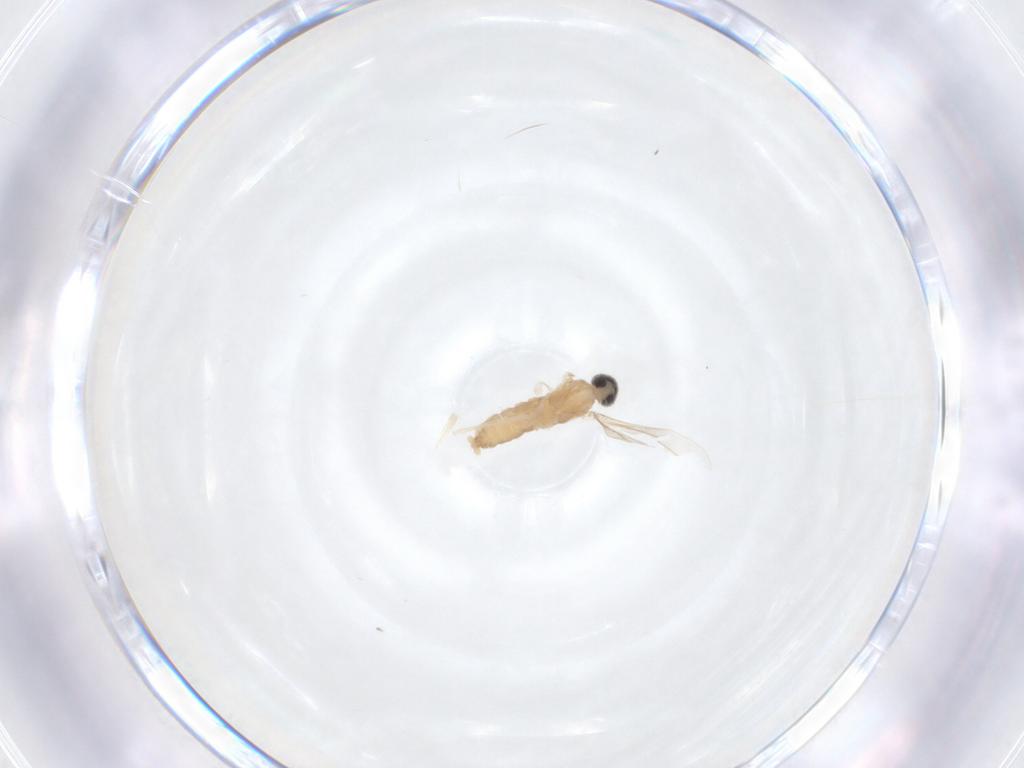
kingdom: Animalia
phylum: Arthropoda
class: Insecta
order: Diptera
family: Cecidomyiidae
